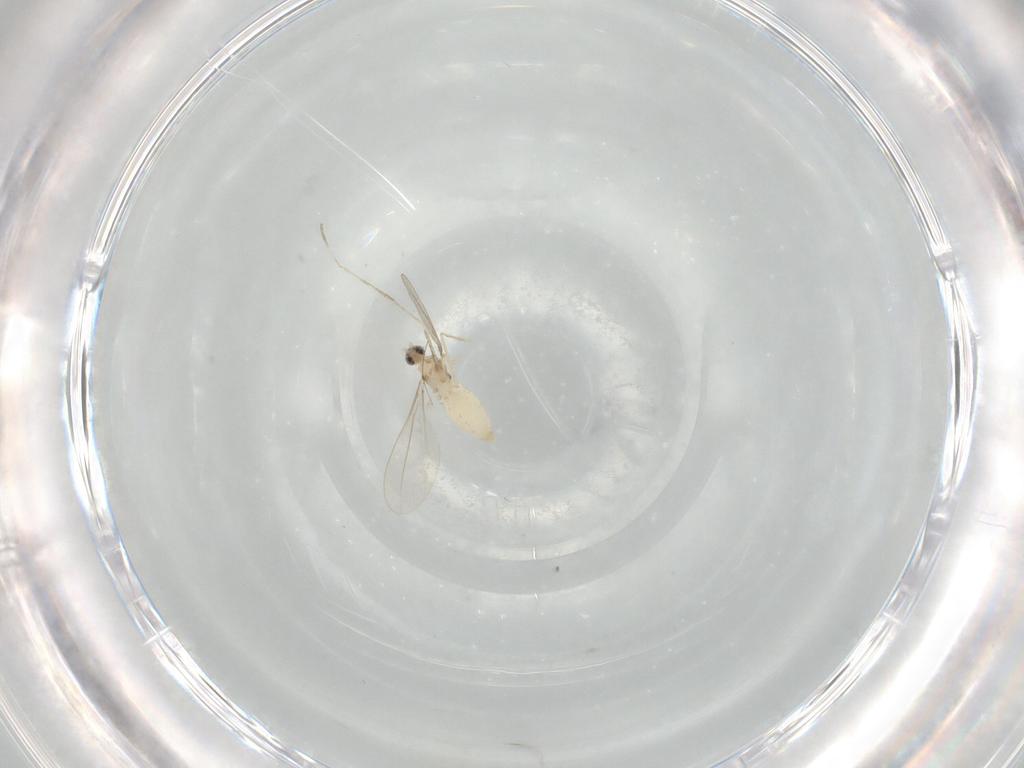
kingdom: Animalia
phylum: Arthropoda
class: Insecta
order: Diptera
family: Cecidomyiidae
